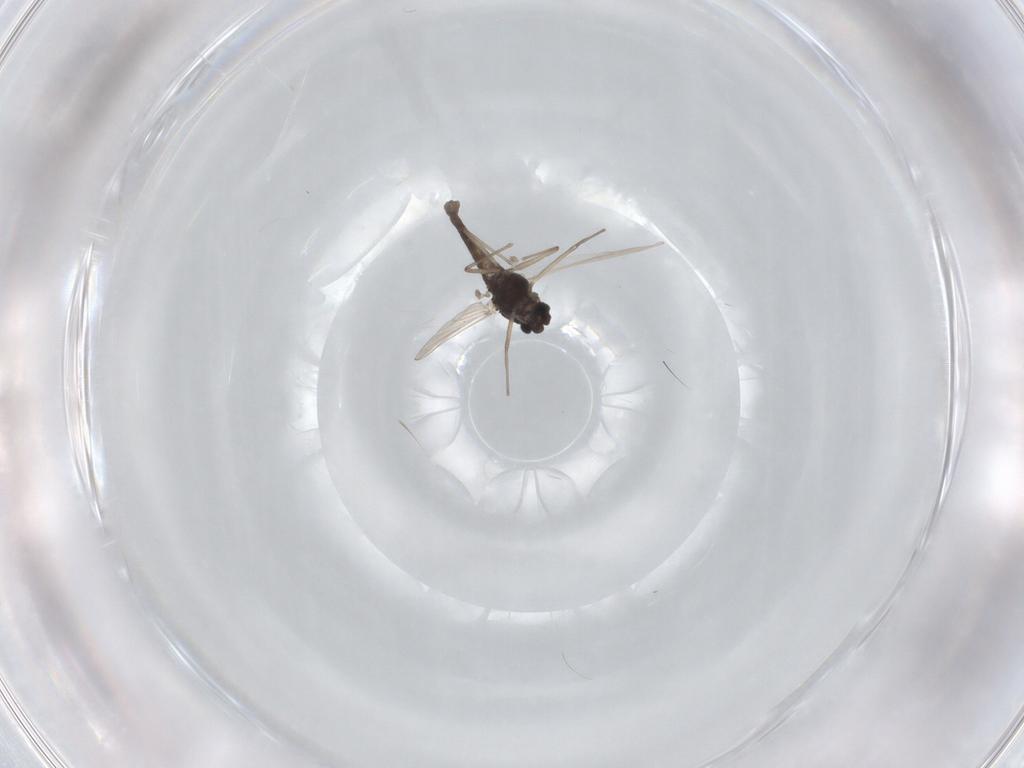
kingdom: Animalia
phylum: Arthropoda
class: Insecta
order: Diptera
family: Chironomidae
